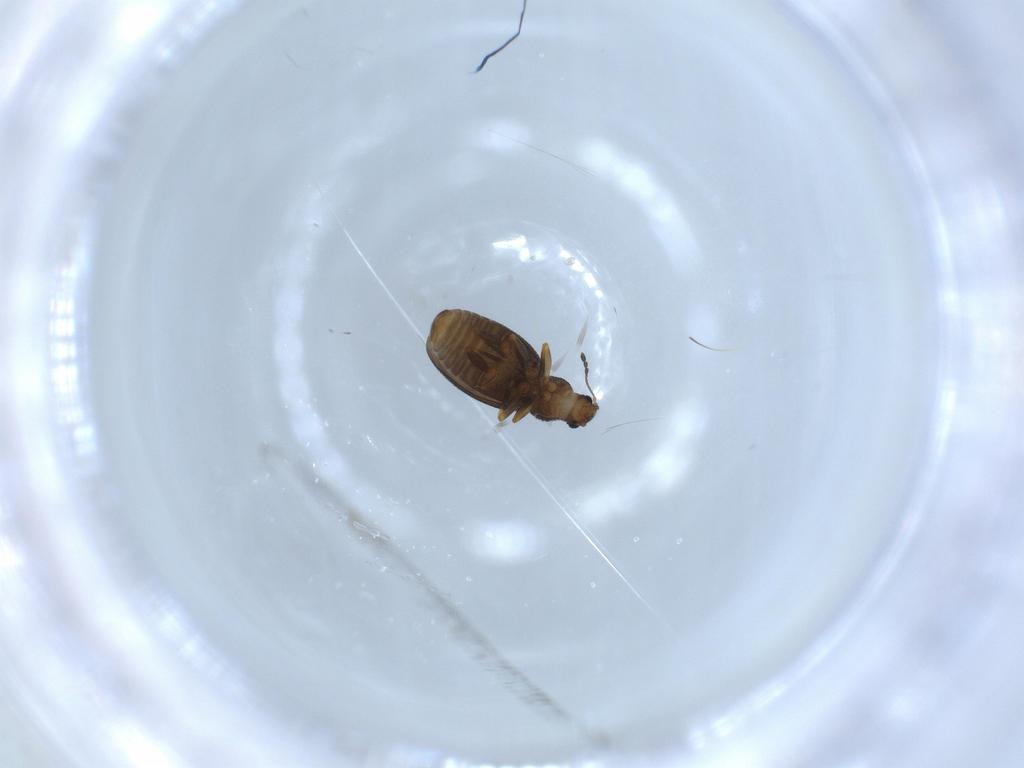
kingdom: Animalia
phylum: Arthropoda
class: Insecta
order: Coleoptera
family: Latridiidae
